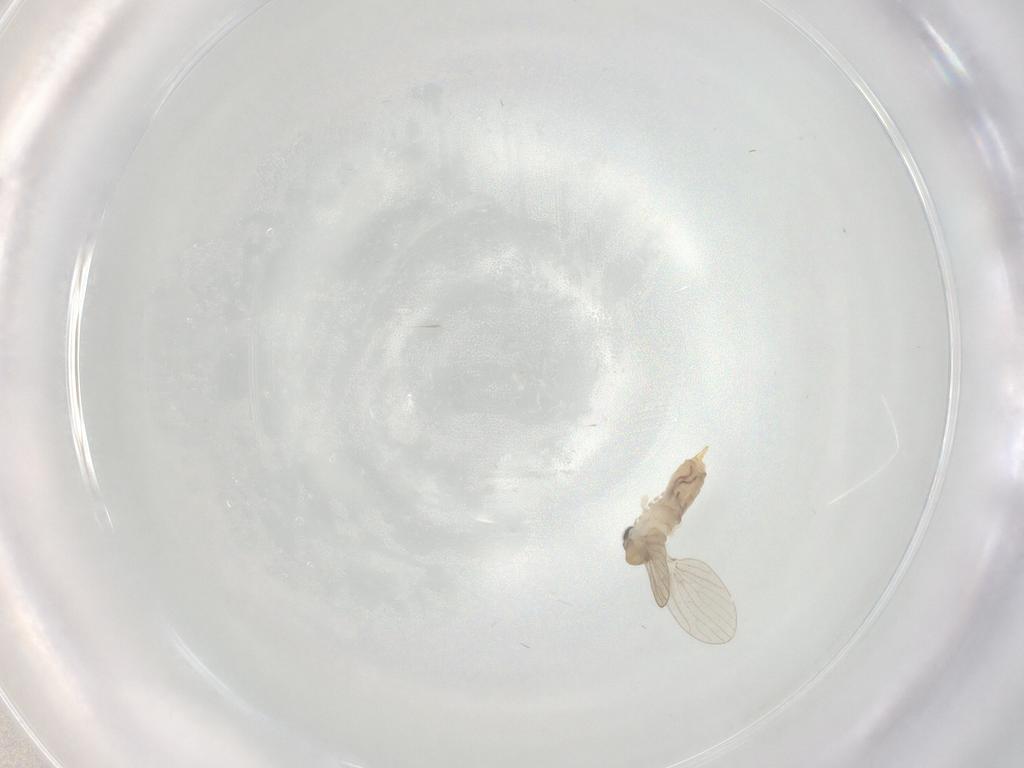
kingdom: Animalia
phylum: Arthropoda
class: Insecta
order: Diptera
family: Psychodidae
